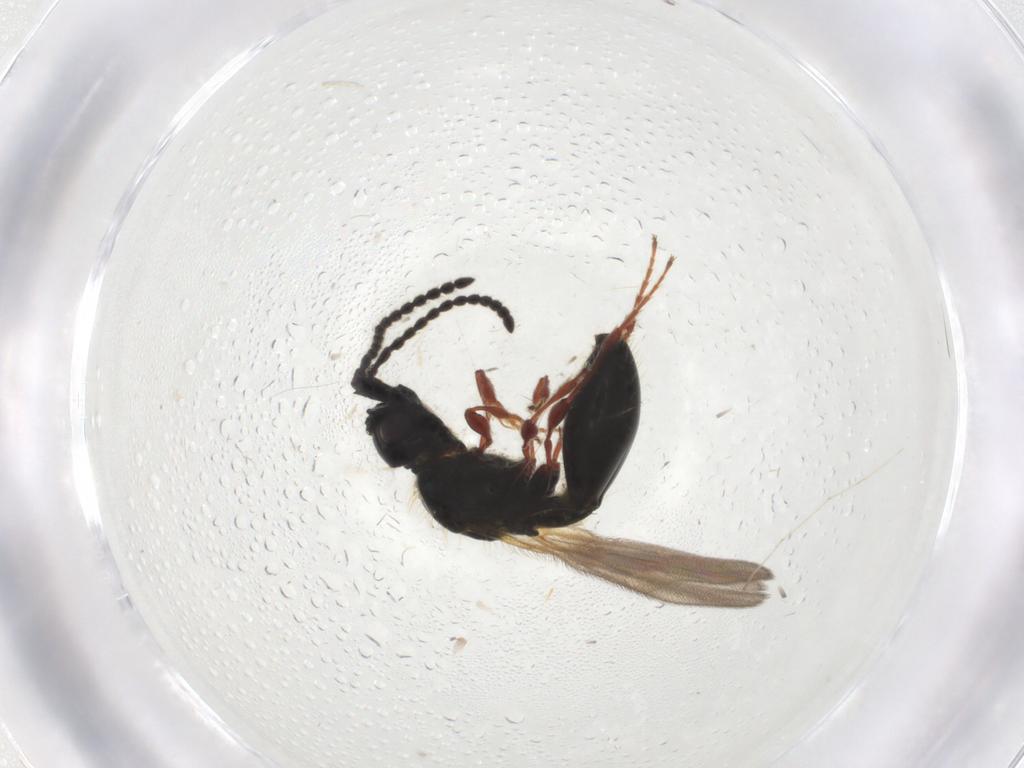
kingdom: Animalia
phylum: Arthropoda
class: Insecta
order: Hymenoptera
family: Diapriidae
